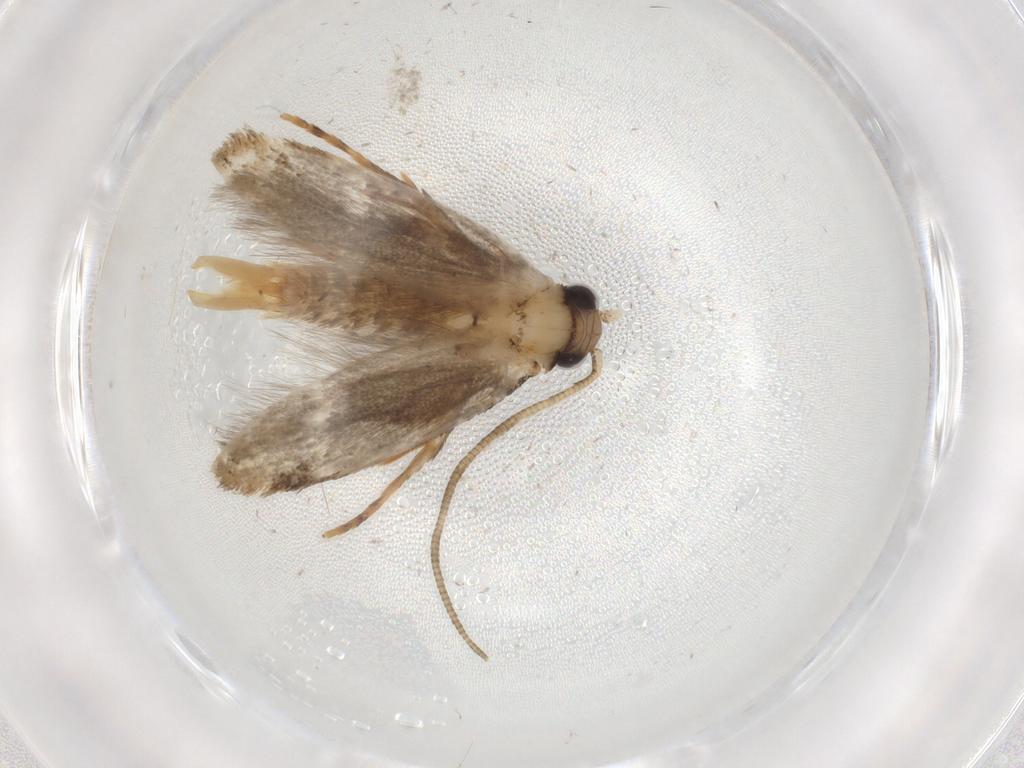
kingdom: Animalia
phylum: Arthropoda
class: Insecta
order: Lepidoptera
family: Tineidae
